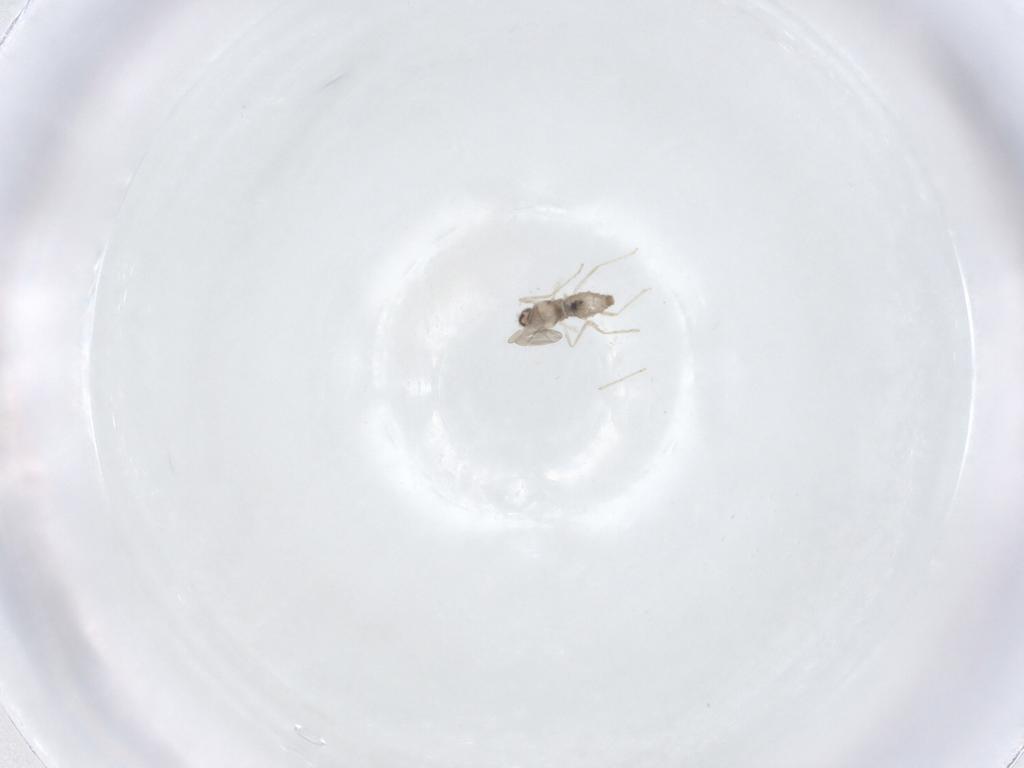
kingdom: Animalia
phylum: Arthropoda
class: Insecta
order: Diptera
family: Cecidomyiidae
